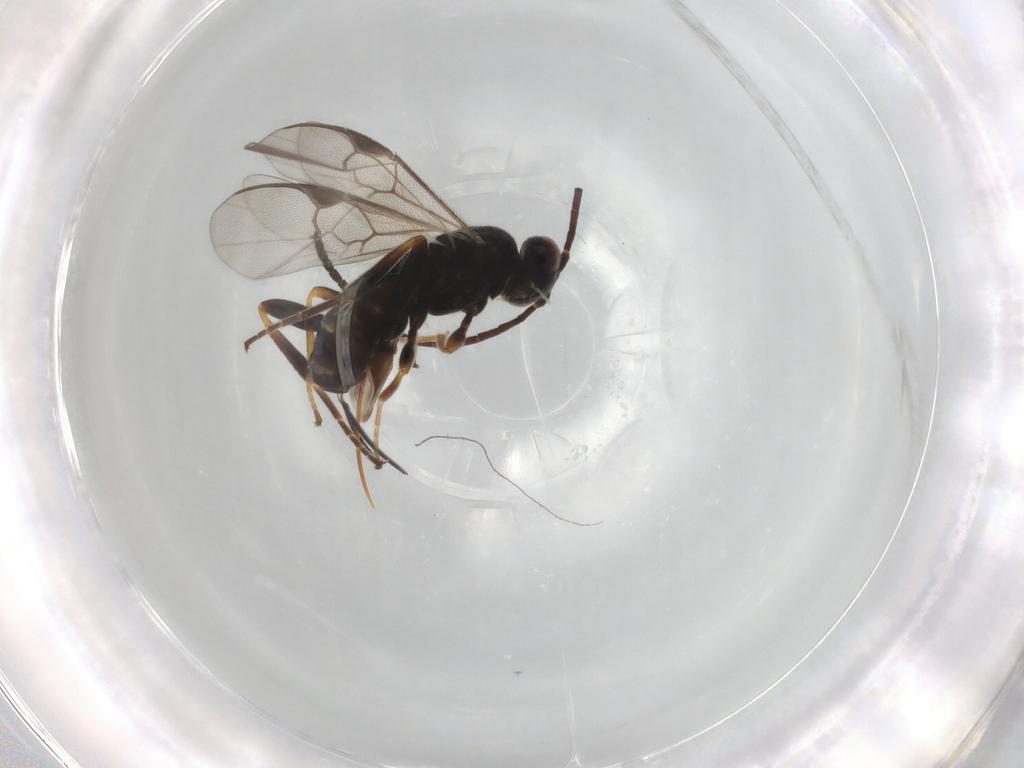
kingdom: Animalia
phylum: Arthropoda
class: Insecta
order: Hymenoptera
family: Braconidae
